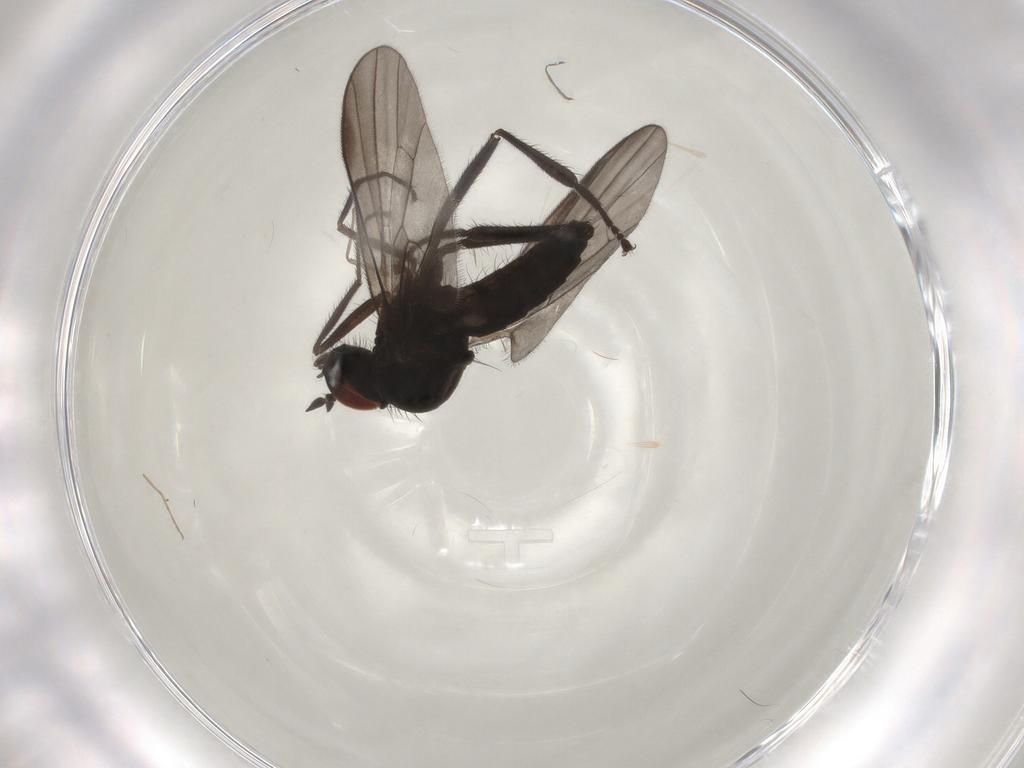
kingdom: Animalia
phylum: Arthropoda
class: Insecta
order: Diptera
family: Hybotidae
